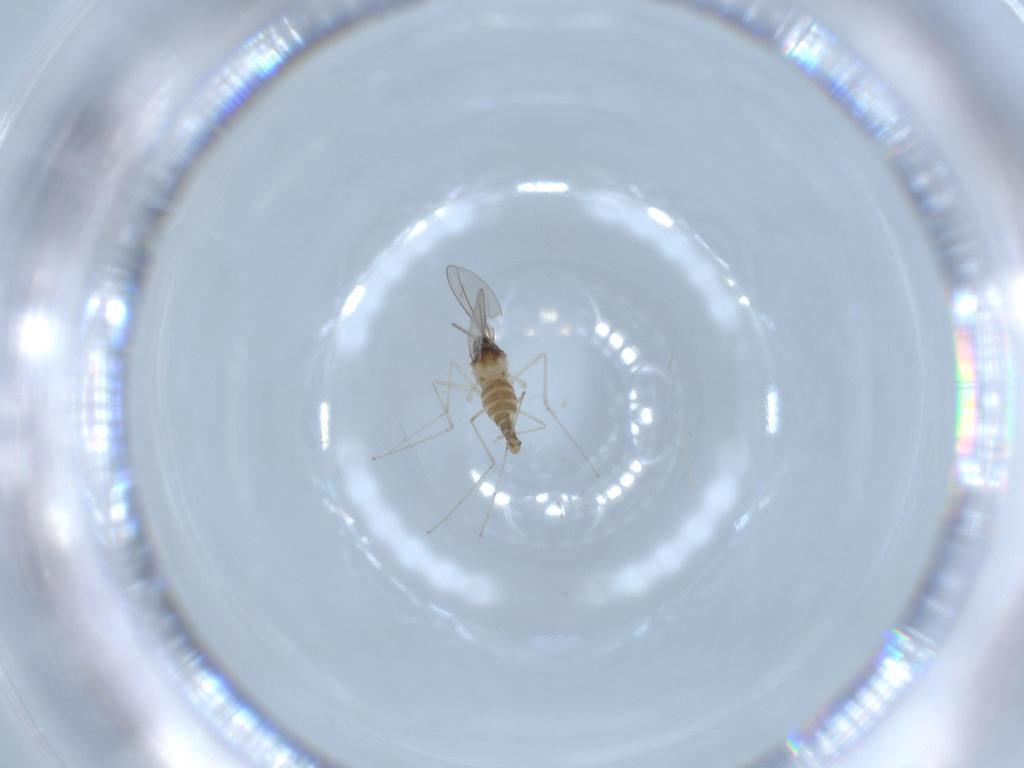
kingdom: Animalia
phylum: Arthropoda
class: Insecta
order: Diptera
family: Cecidomyiidae
